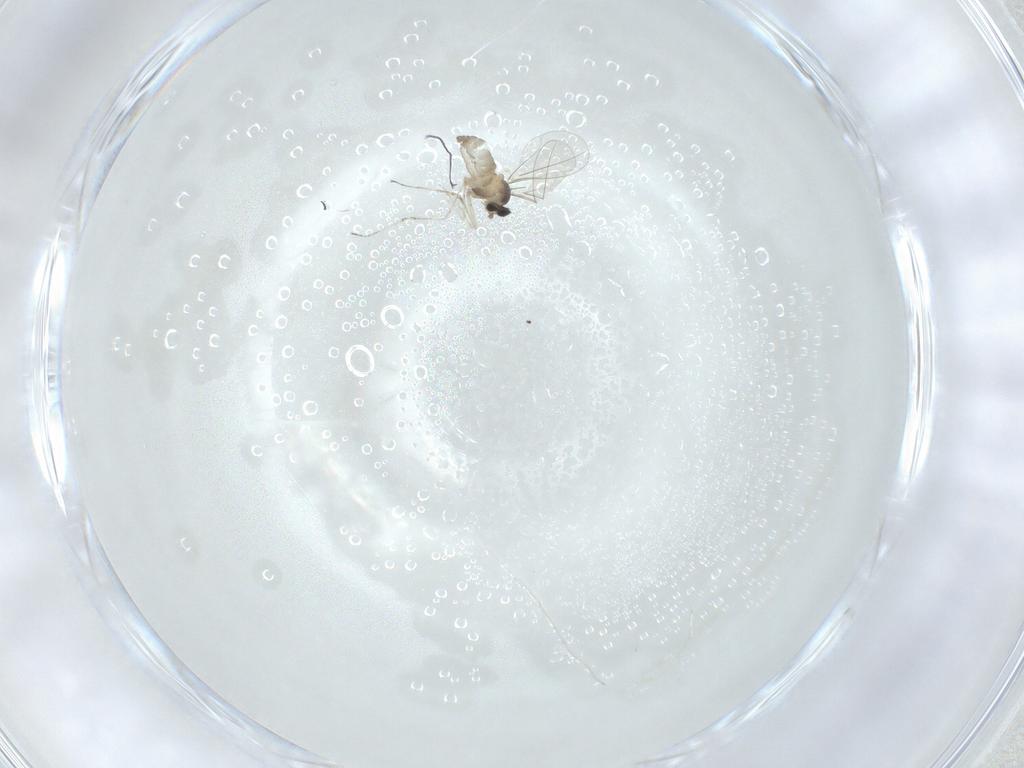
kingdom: Animalia
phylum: Arthropoda
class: Insecta
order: Diptera
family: Cecidomyiidae
